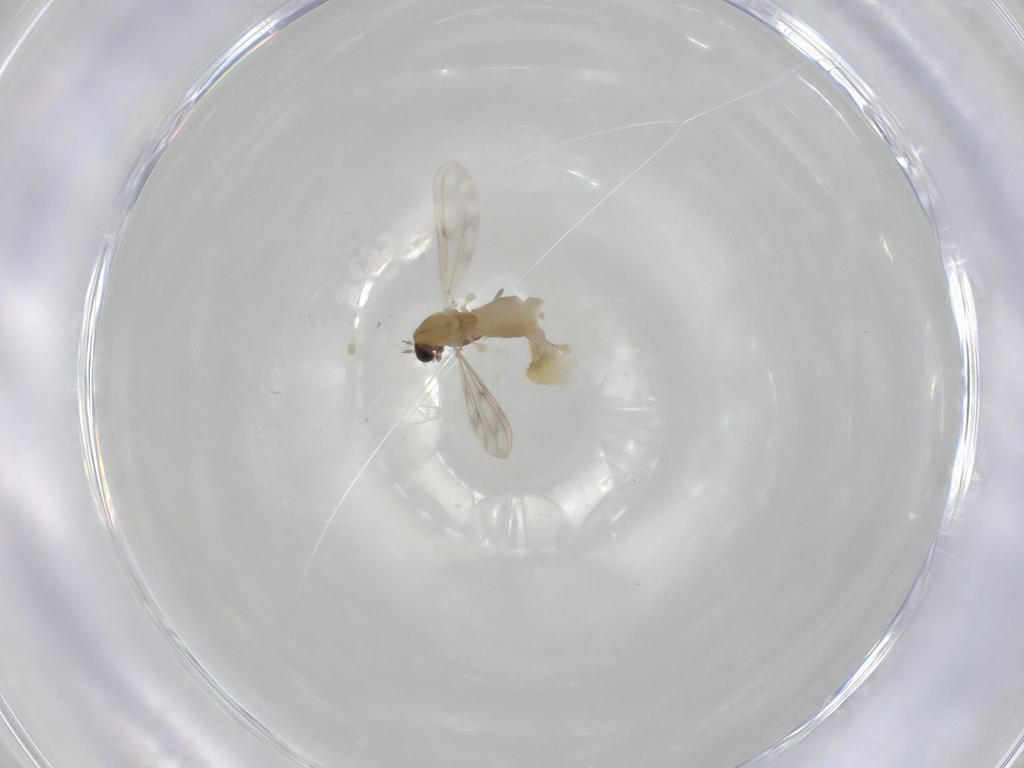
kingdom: Animalia
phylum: Arthropoda
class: Insecta
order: Diptera
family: Chironomidae
